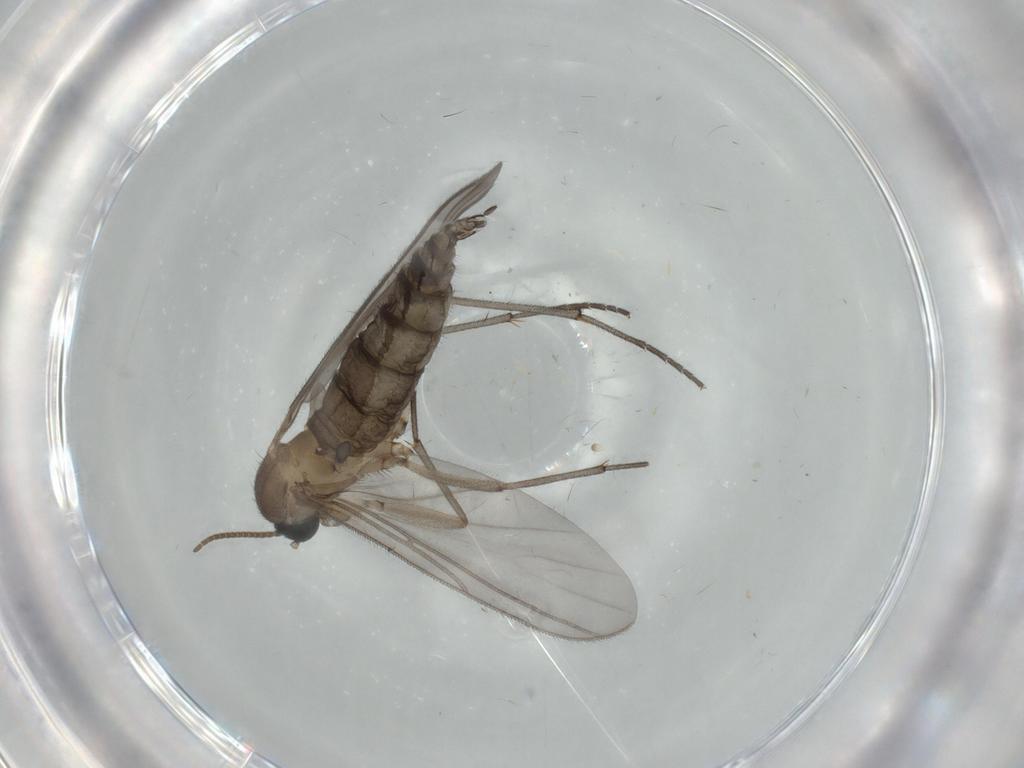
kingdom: Animalia
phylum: Arthropoda
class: Insecta
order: Diptera
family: Sciaridae
